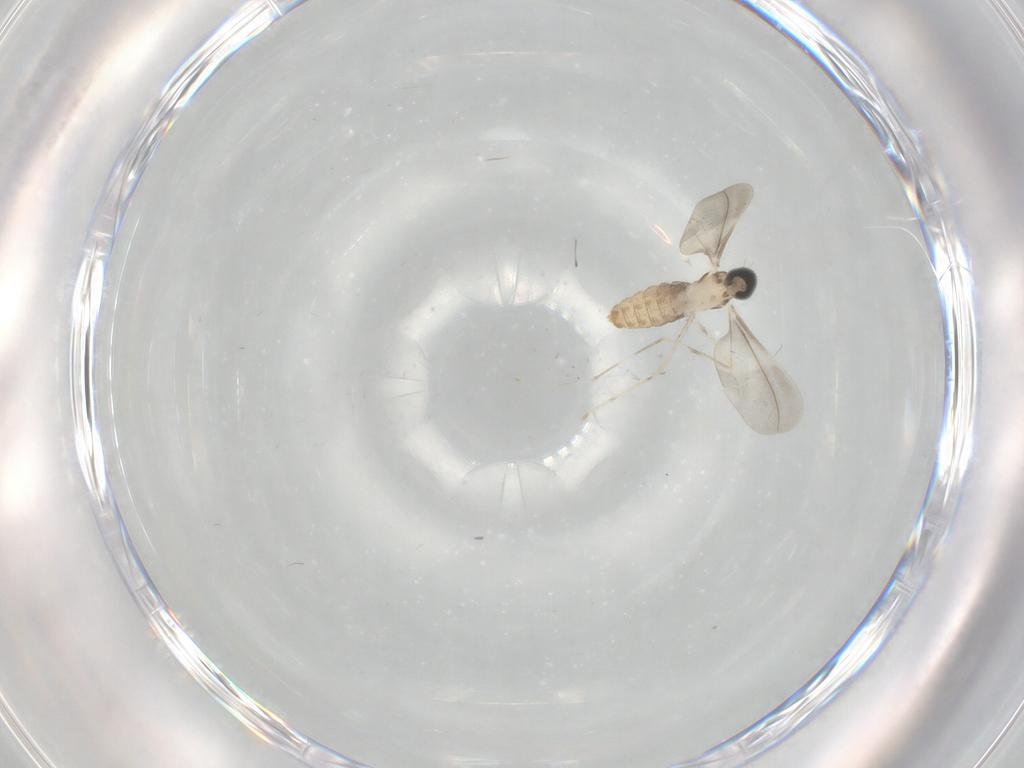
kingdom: Animalia
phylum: Arthropoda
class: Insecta
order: Diptera
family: Cecidomyiidae
